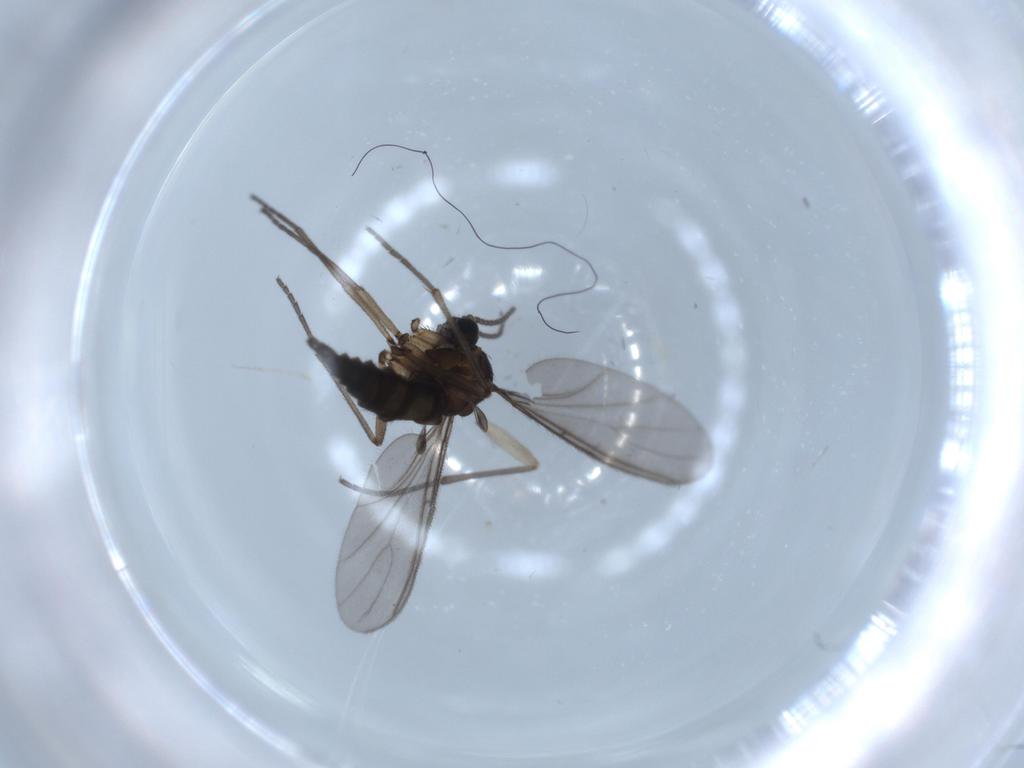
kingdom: Animalia
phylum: Arthropoda
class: Insecta
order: Diptera
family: Sciaridae
